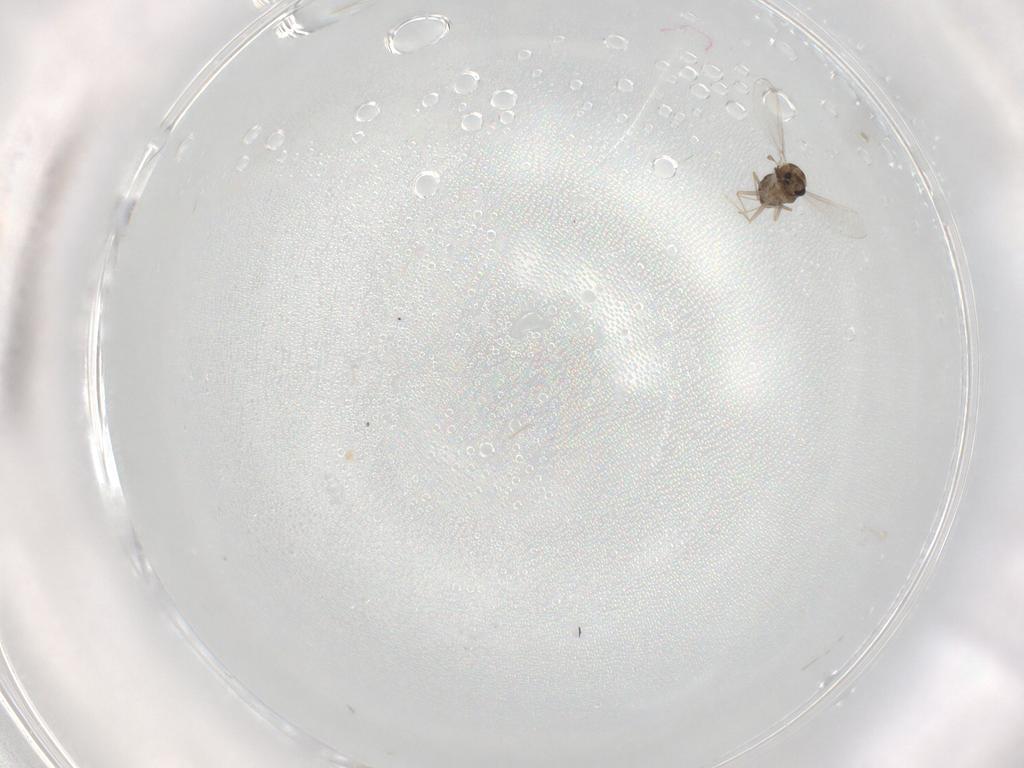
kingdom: Animalia
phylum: Arthropoda
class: Insecta
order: Diptera
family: Chironomidae
